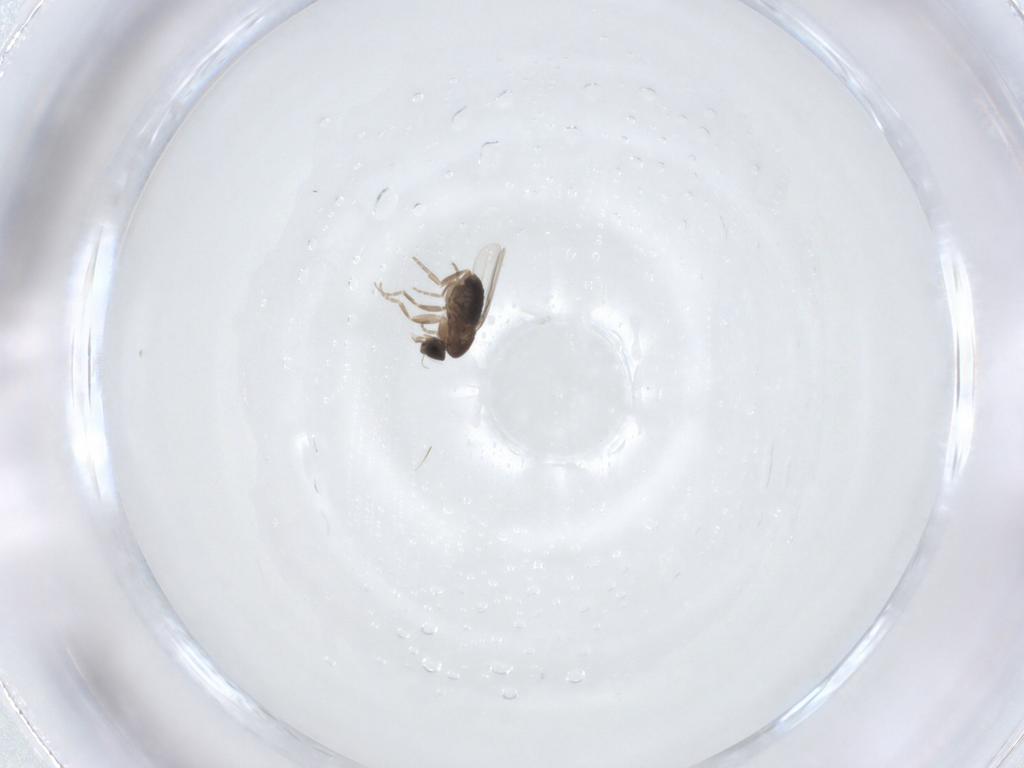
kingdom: Animalia
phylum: Arthropoda
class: Insecta
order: Diptera
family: Phoridae
